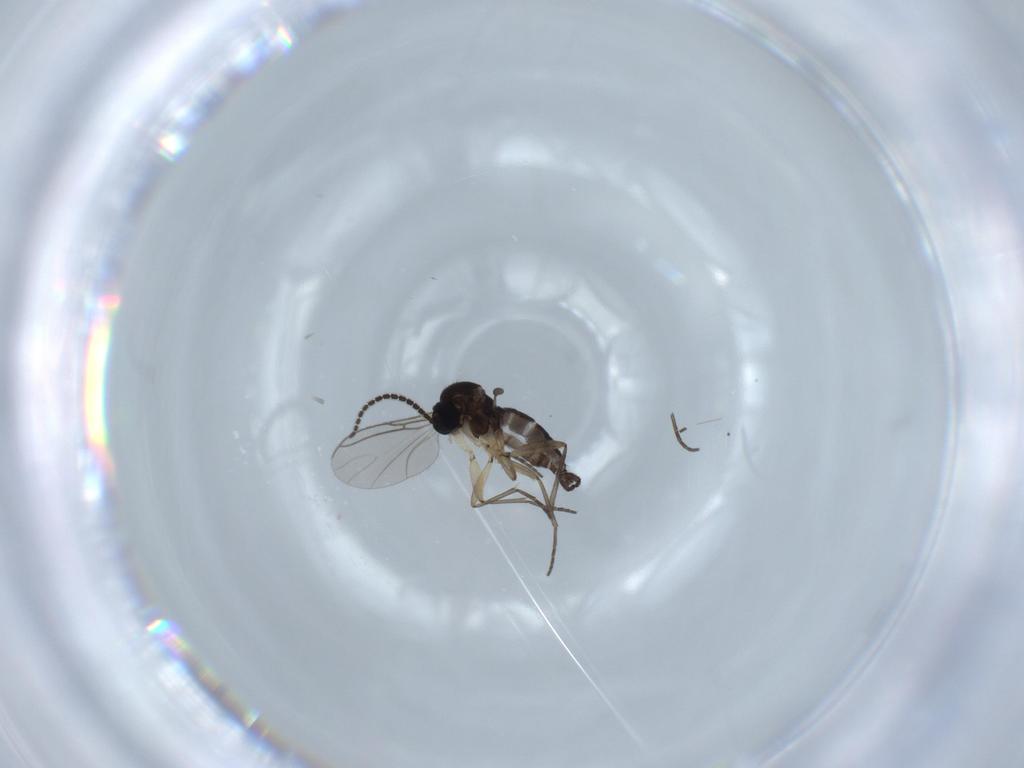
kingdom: Animalia
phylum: Arthropoda
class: Insecta
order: Diptera
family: Sciaridae
